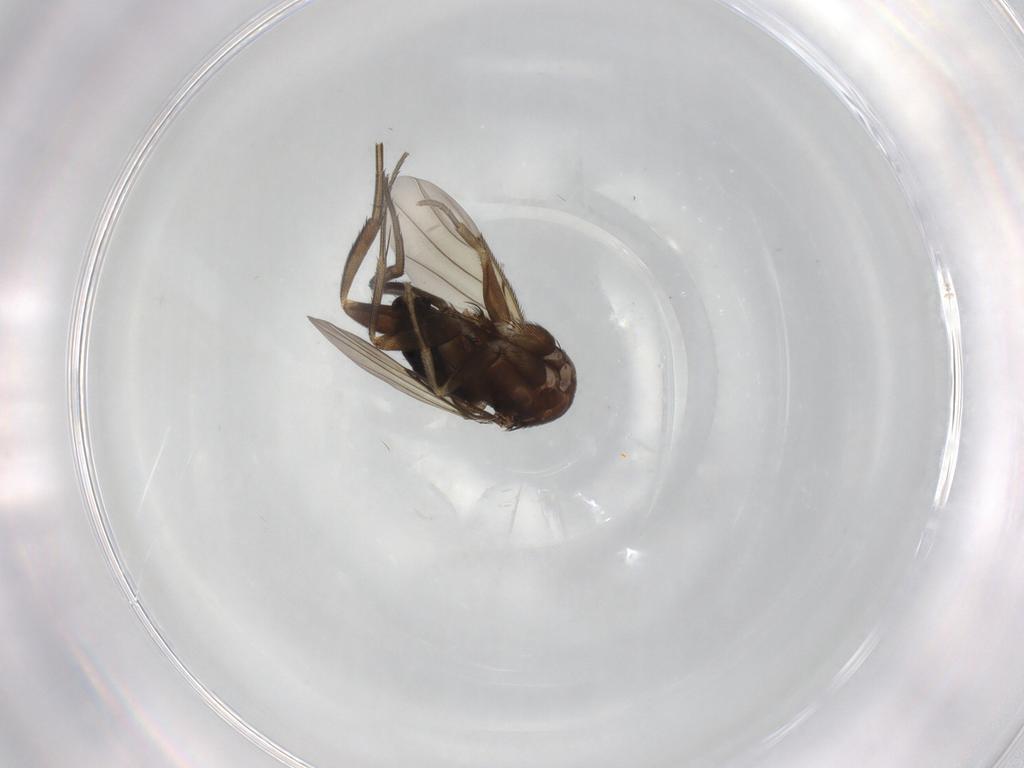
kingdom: Animalia
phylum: Arthropoda
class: Insecta
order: Diptera
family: Phoridae
